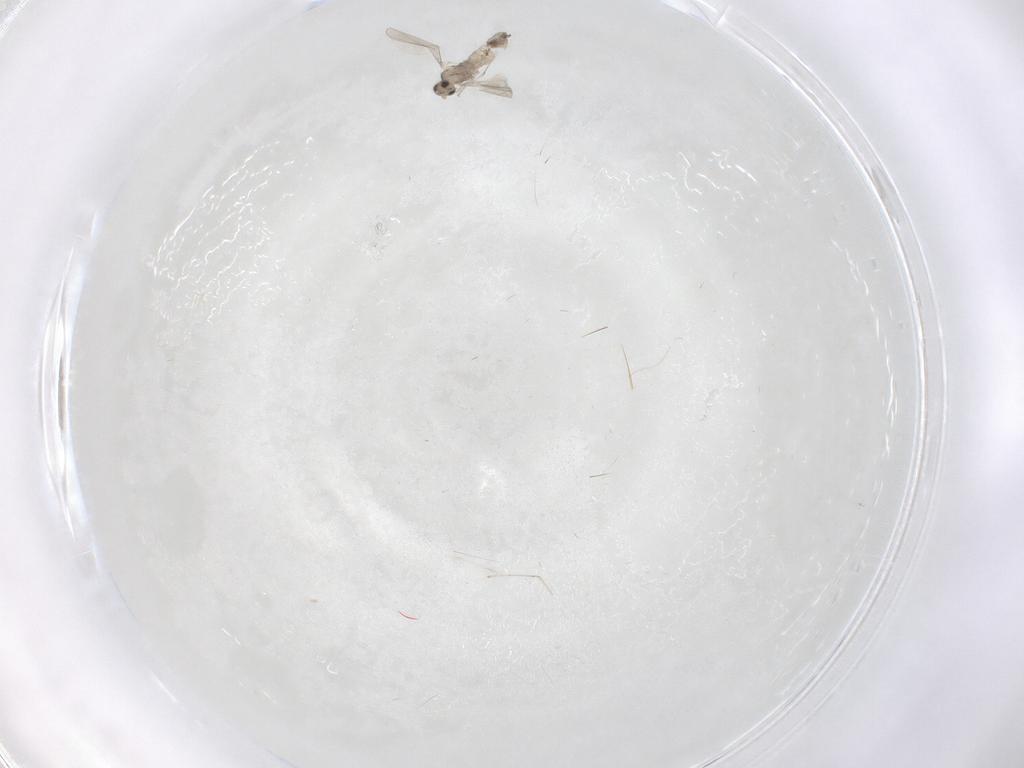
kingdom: Animalia
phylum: Arthropoda
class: Insecta
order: Diptera
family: Cecidomyiidae
